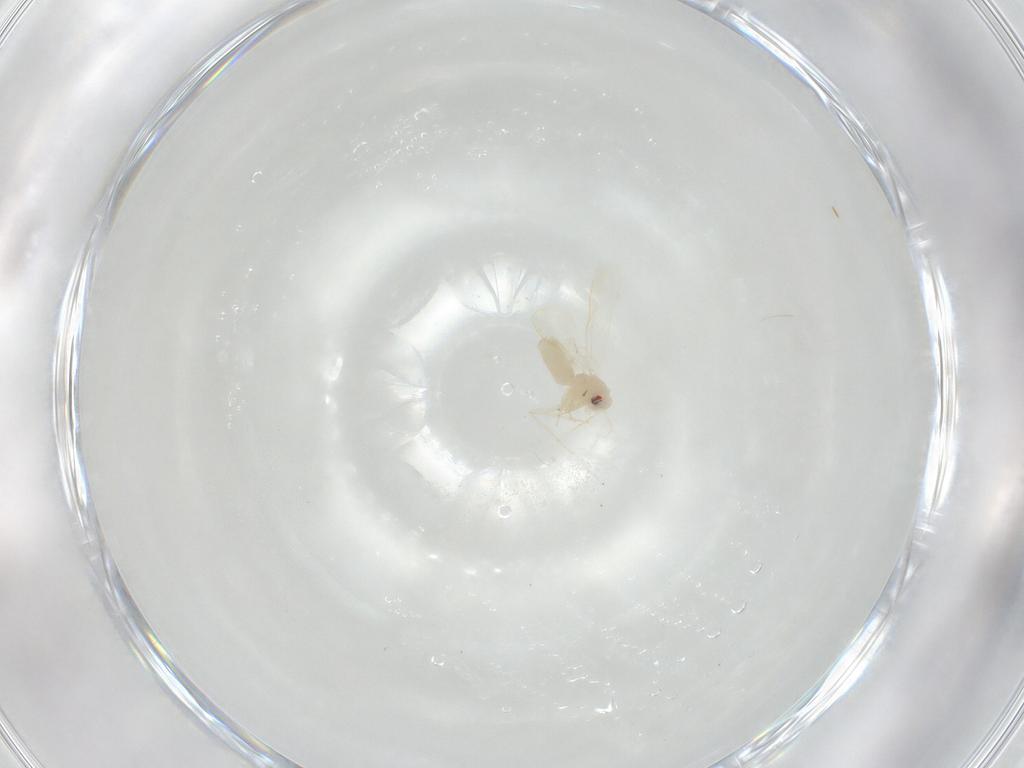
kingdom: Animalia
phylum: Arthropoda
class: Insecta
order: Hemiptera
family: Aleyrodidae
